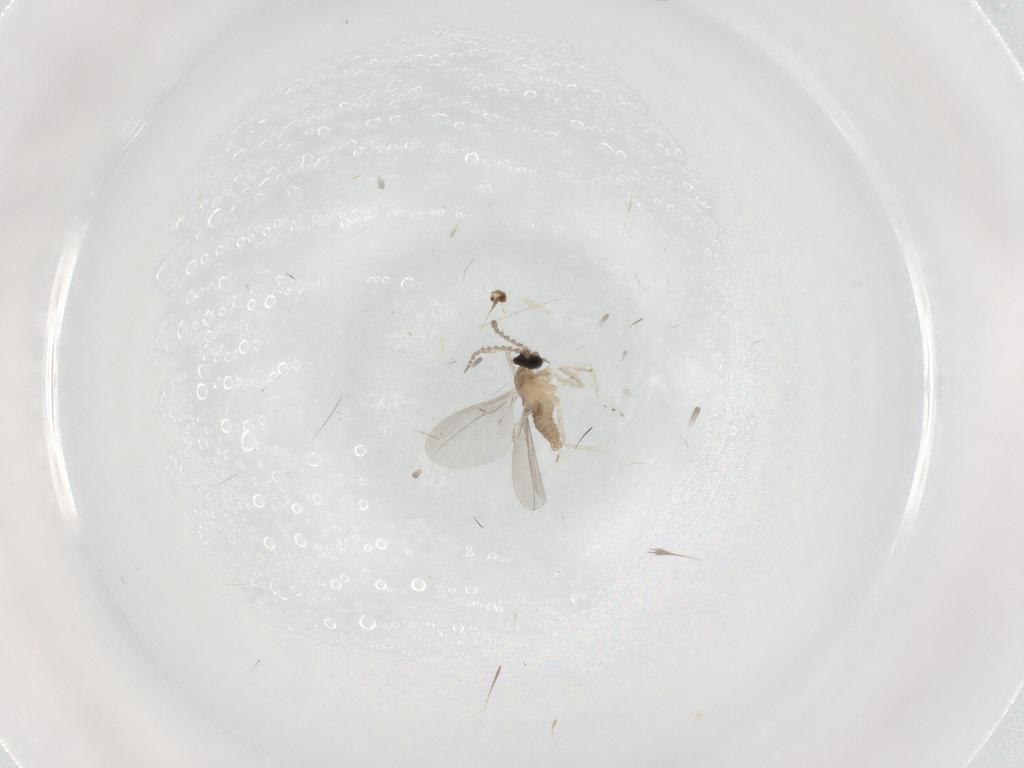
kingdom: Animalia
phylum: Arthropoda
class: Insecta
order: Diptera
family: Cecidomyiidae
